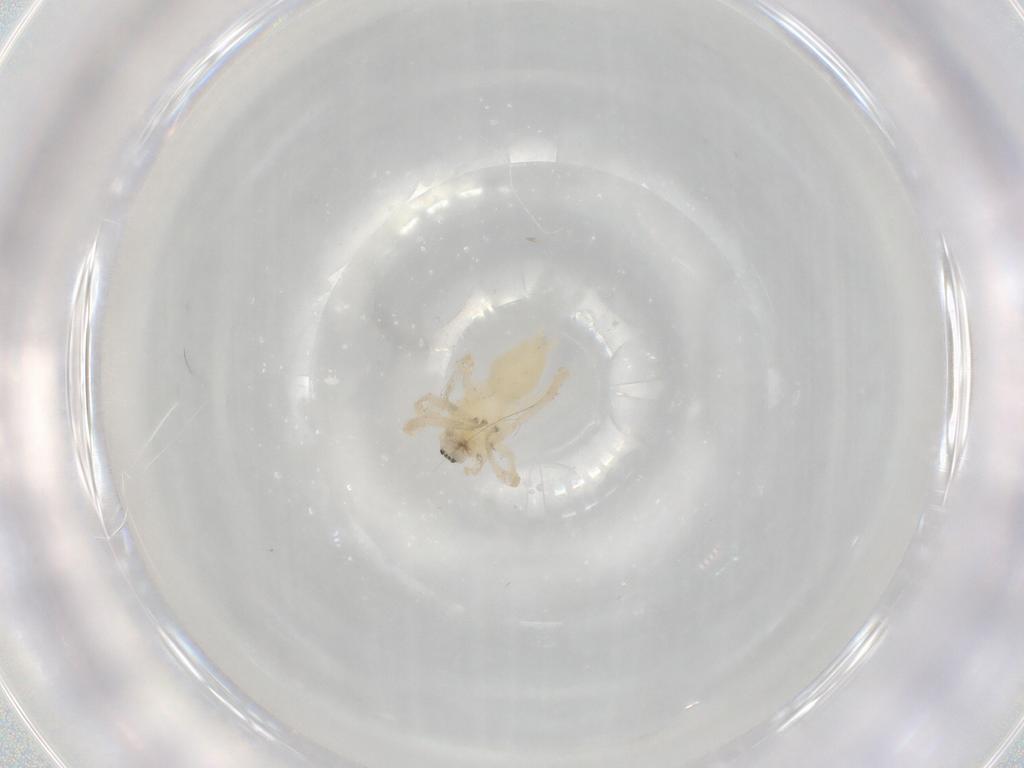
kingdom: Animalia
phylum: Arthropoda
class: Arachnida
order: Araneae
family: Anyphaenidae
